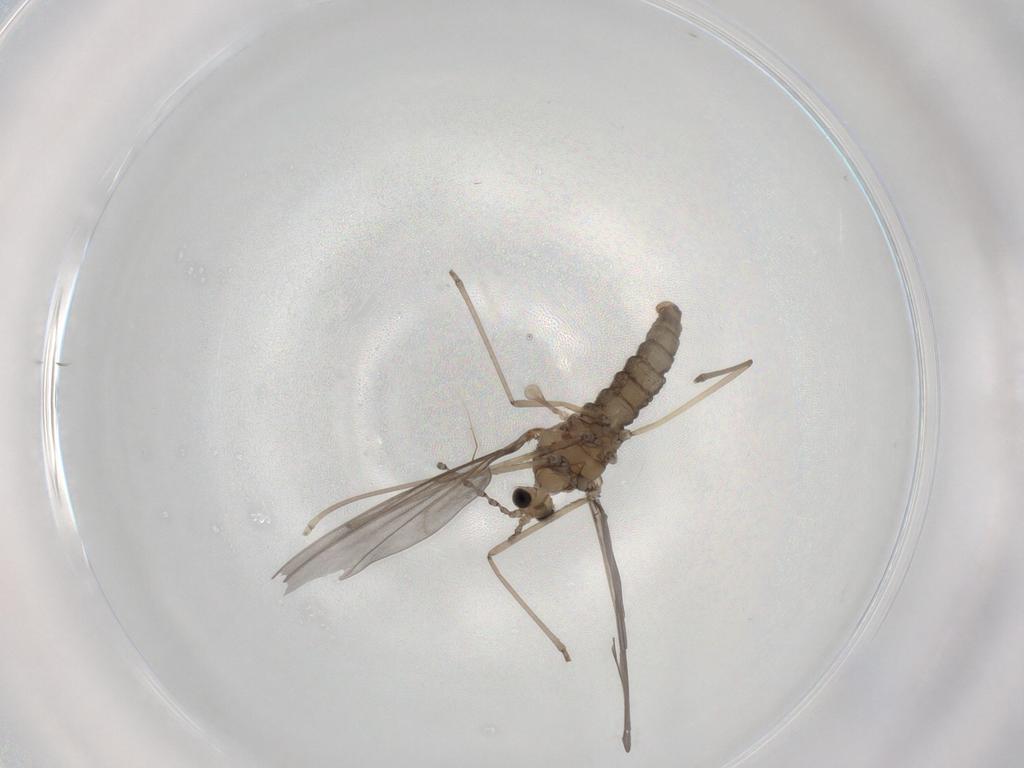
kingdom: Animalia
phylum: Arthropoda
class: Insecta
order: Diptera
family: Cecidomyiidae
